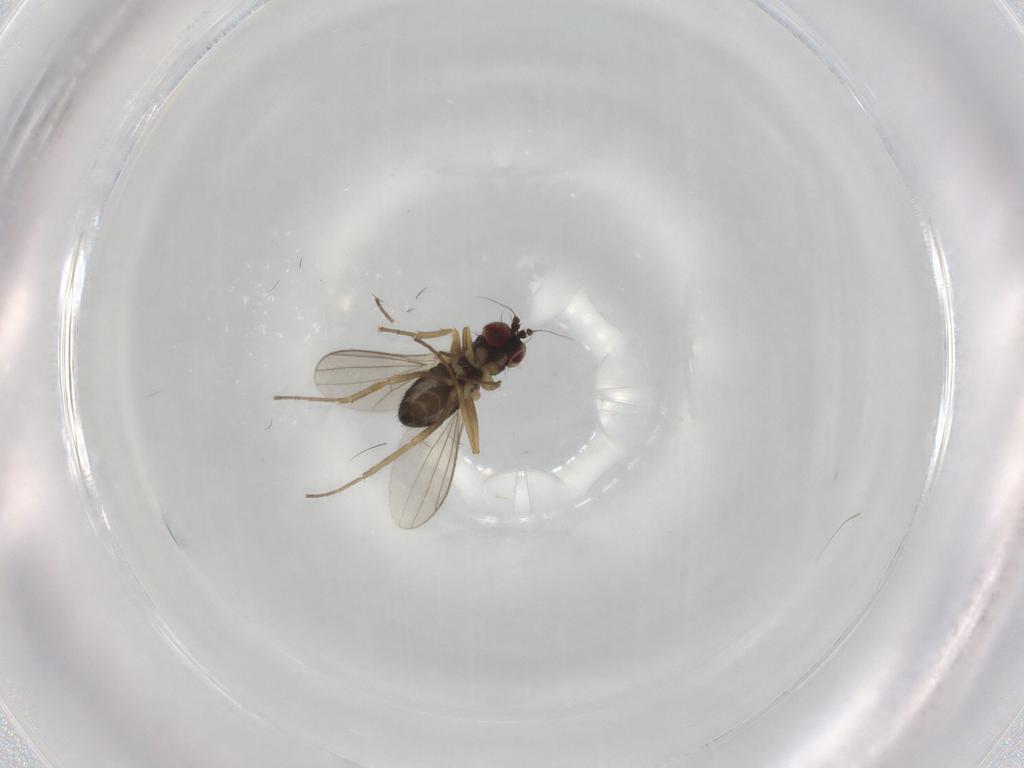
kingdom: Animalia
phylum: Arthropoda
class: Insecta
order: Diptera
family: Dolichopodidae
